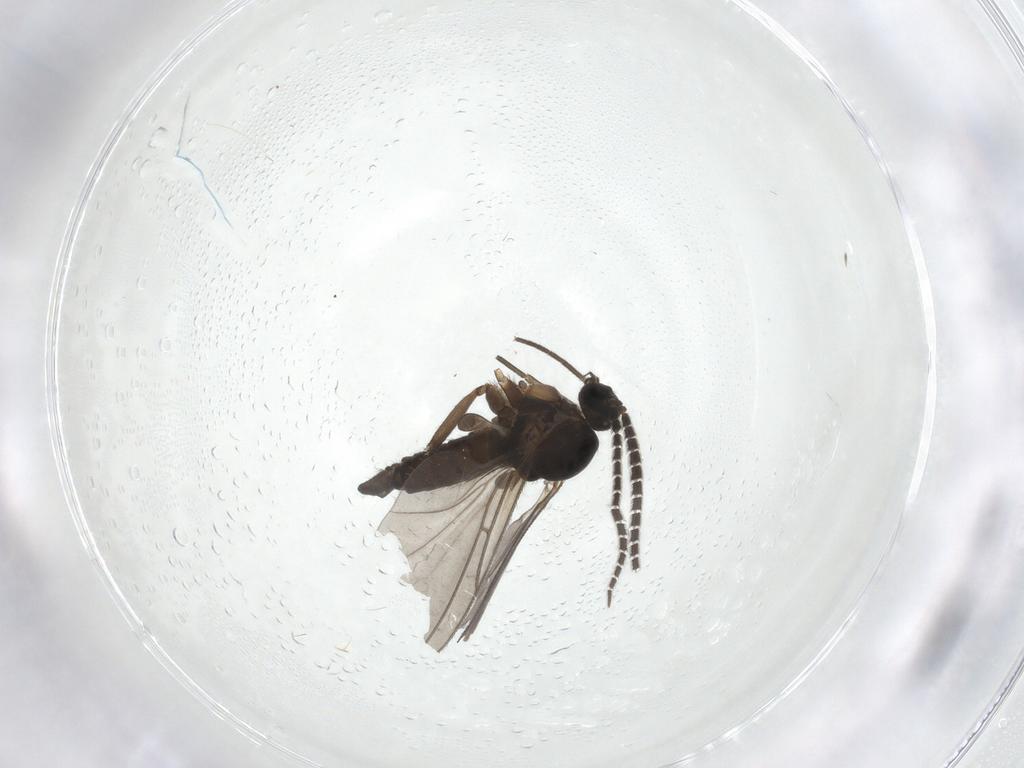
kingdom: Animalia
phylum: Arthropoda
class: Insecta
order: Diptera
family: Sciaridae
